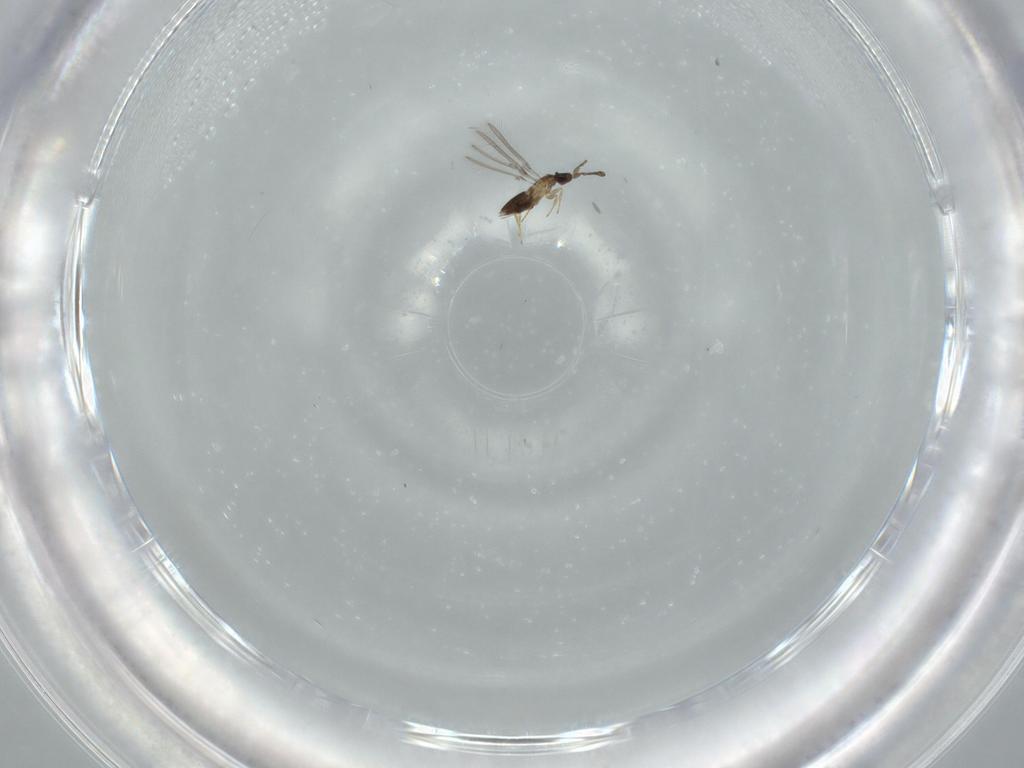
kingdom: Animalia
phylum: Arthropoda
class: Insecta
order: Hymenoptera
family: Mymaridae
